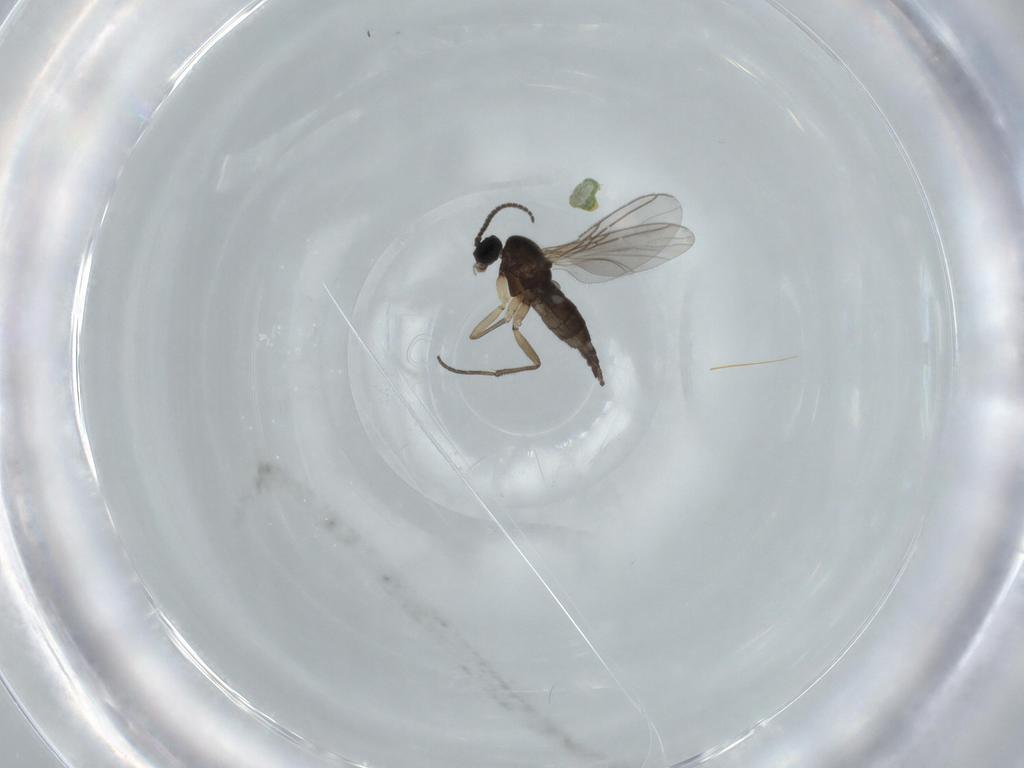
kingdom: Animalia
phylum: Arthropoda
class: Insecta
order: Diptera
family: Sciaridae
